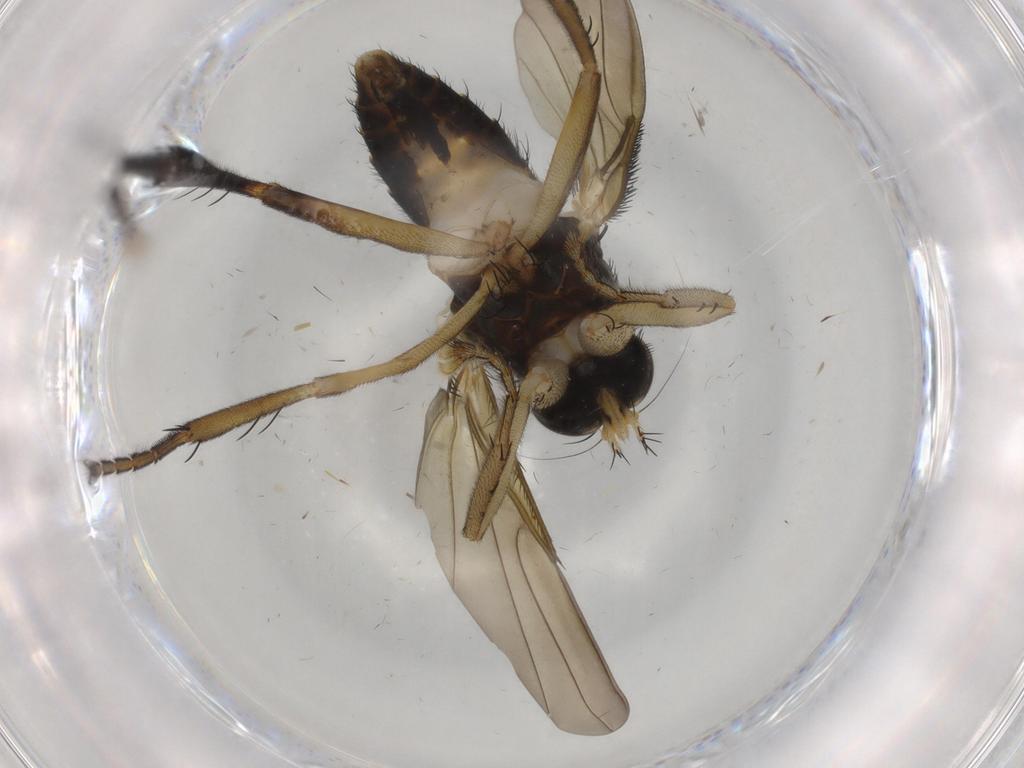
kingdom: Animalia
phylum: Arthropoda
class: Insecta
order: Diptera
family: Phoridae
